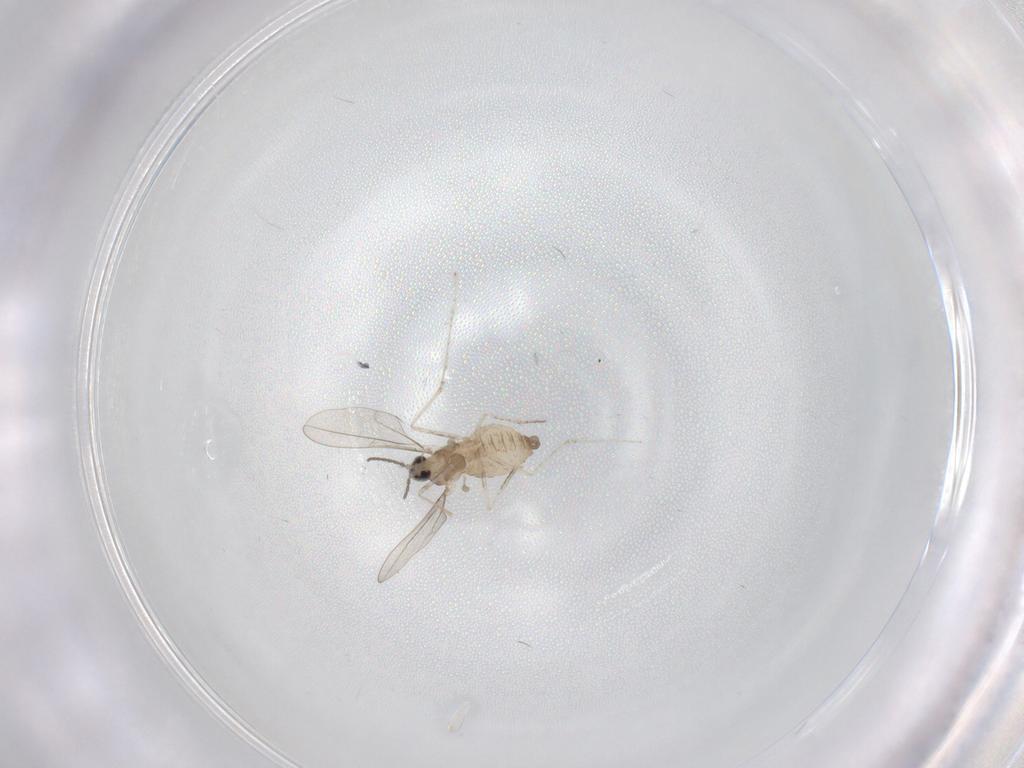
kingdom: Animalia
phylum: Arthropoda
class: Insecta
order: Diptera
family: Cecidomyiidae
